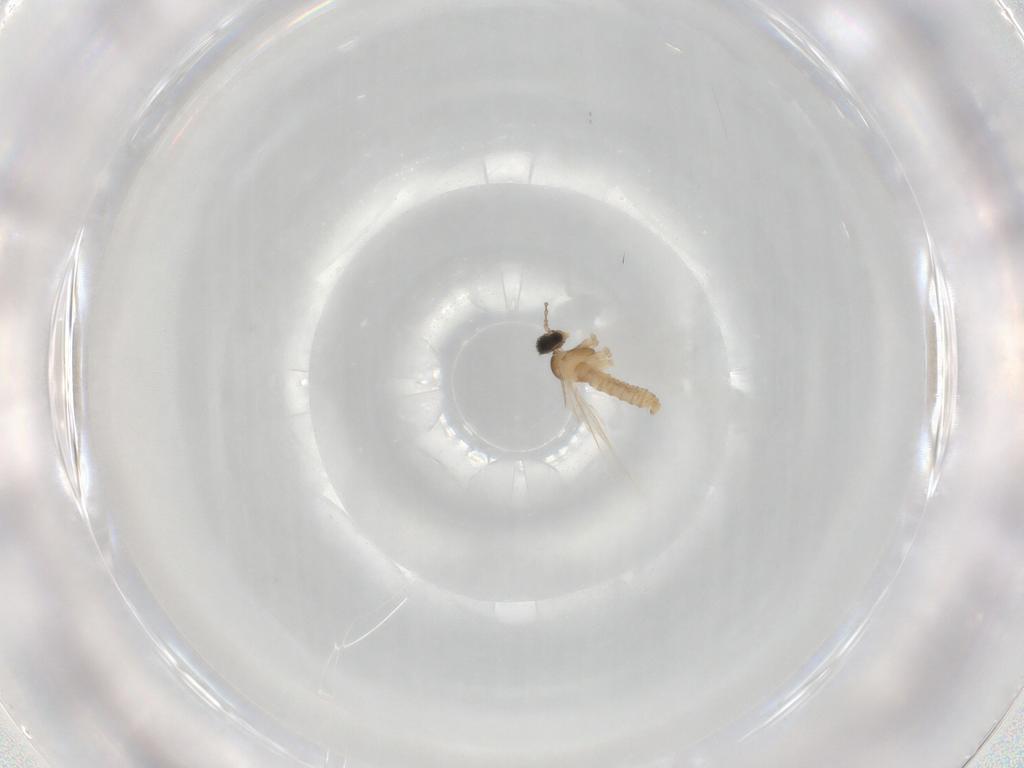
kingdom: Animalia
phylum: Arthropoda
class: Insecta
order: Diptera
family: Cecidomyiidae
